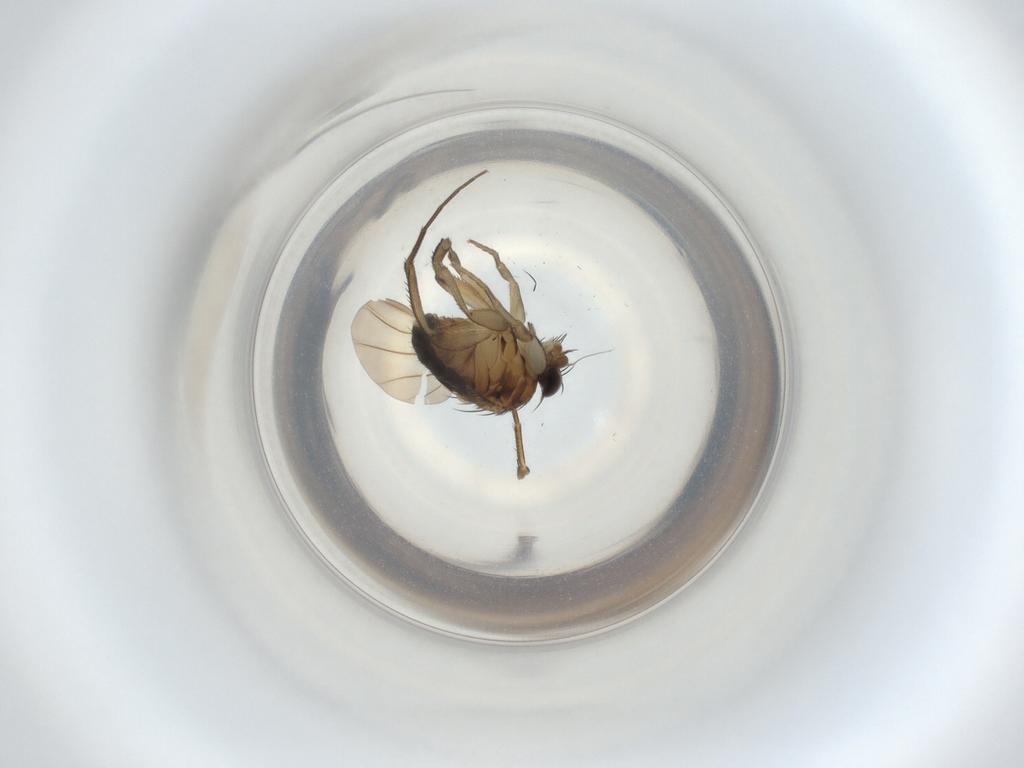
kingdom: Animalia
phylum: Arthropoda
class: Insecta
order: Diptera
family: Phoridae
